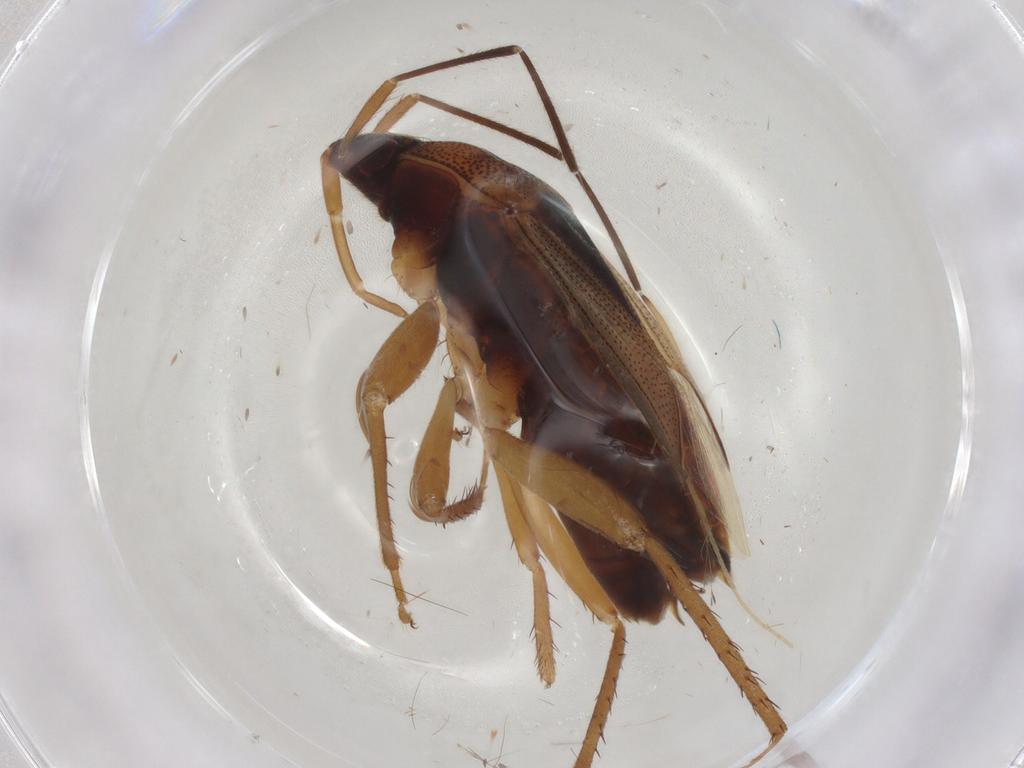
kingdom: Animalia
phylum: Arthropoda
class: Insecta
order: Hemiptera
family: Rhyparochromidae
